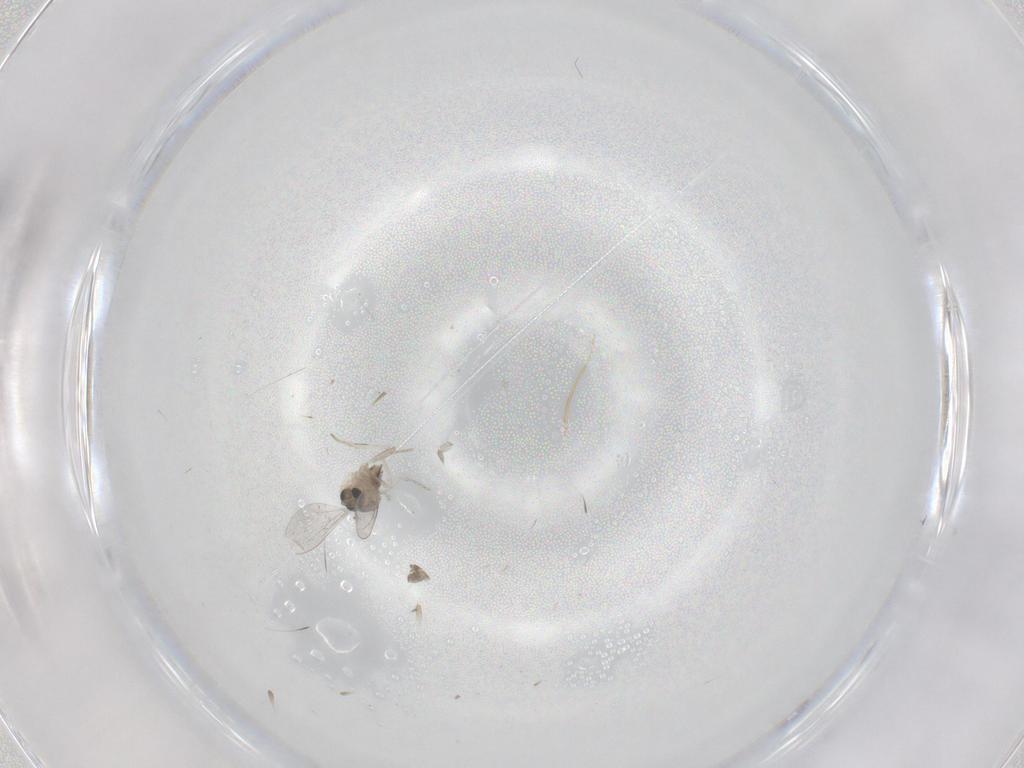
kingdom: Animalia
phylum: Arthropoda
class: Insecta
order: Diptera
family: Cecidomyiidae
